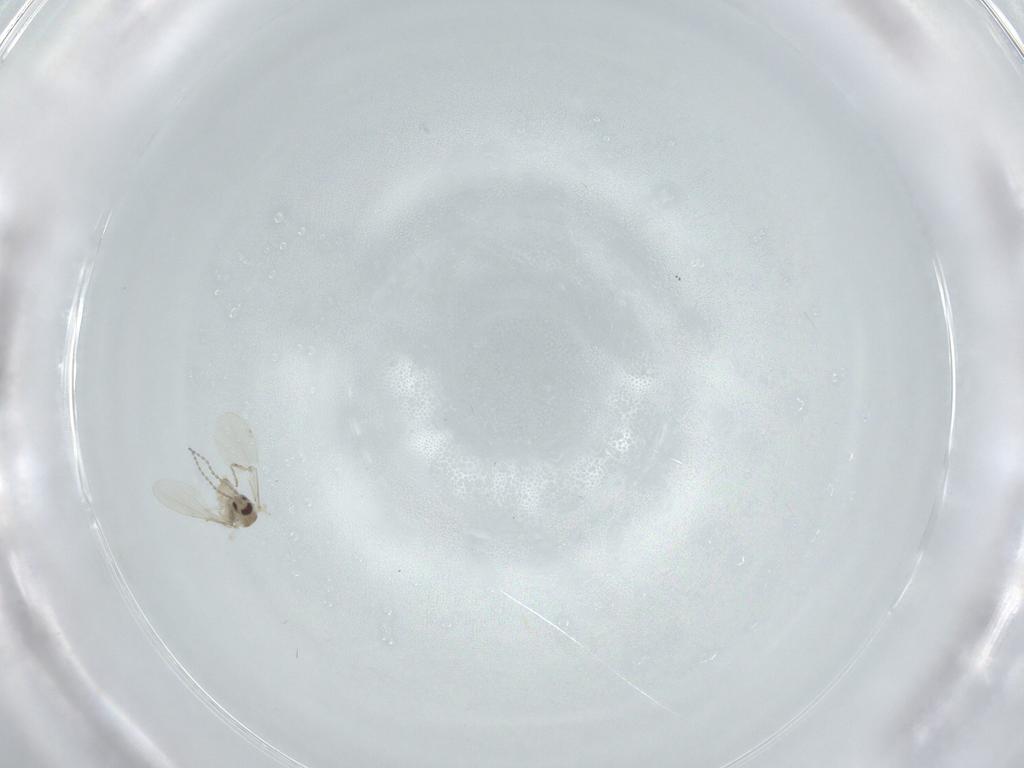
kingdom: Animalia
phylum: Arthropoda
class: Insecta
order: Diptera
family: Cecidomyiidae
